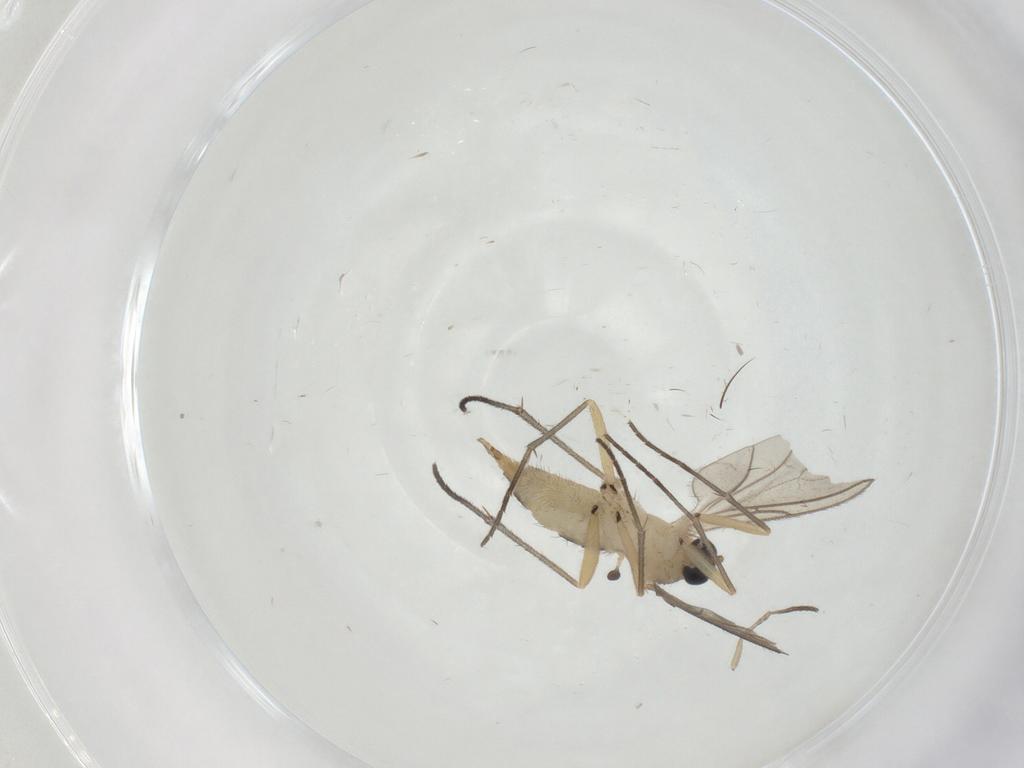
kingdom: Animalia
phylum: Arthropoda
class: Insecta
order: Diptera
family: Sciaridae
